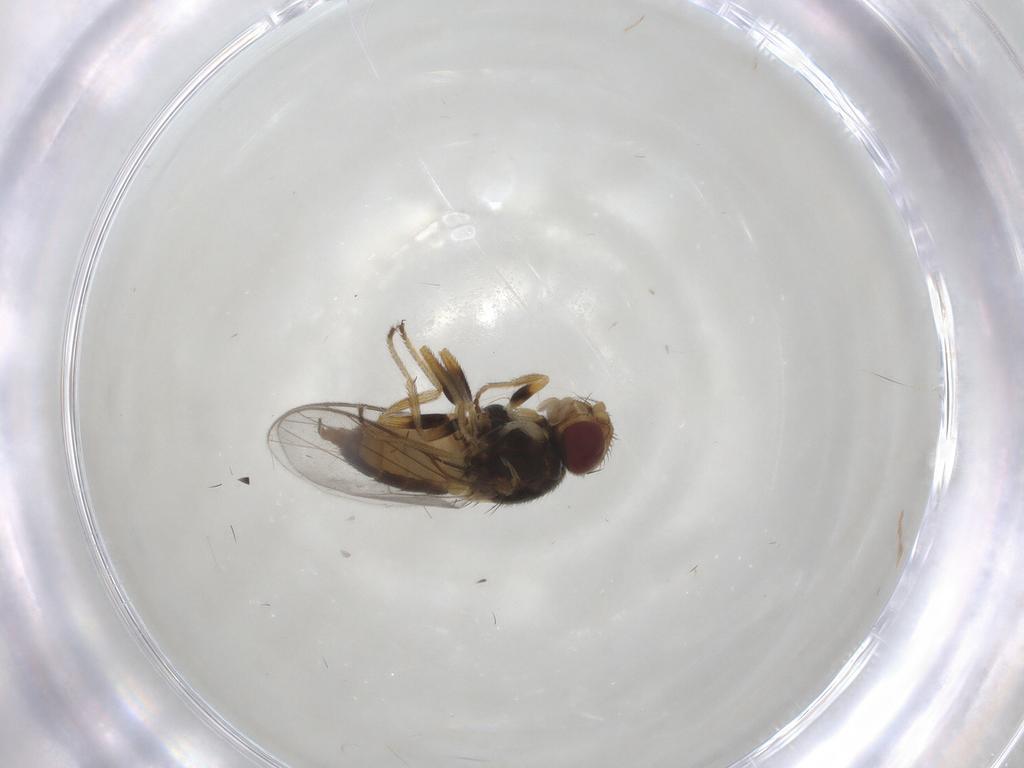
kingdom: Animalia
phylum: Arthropoda
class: Insecta
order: Diptera
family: Chloropidae
